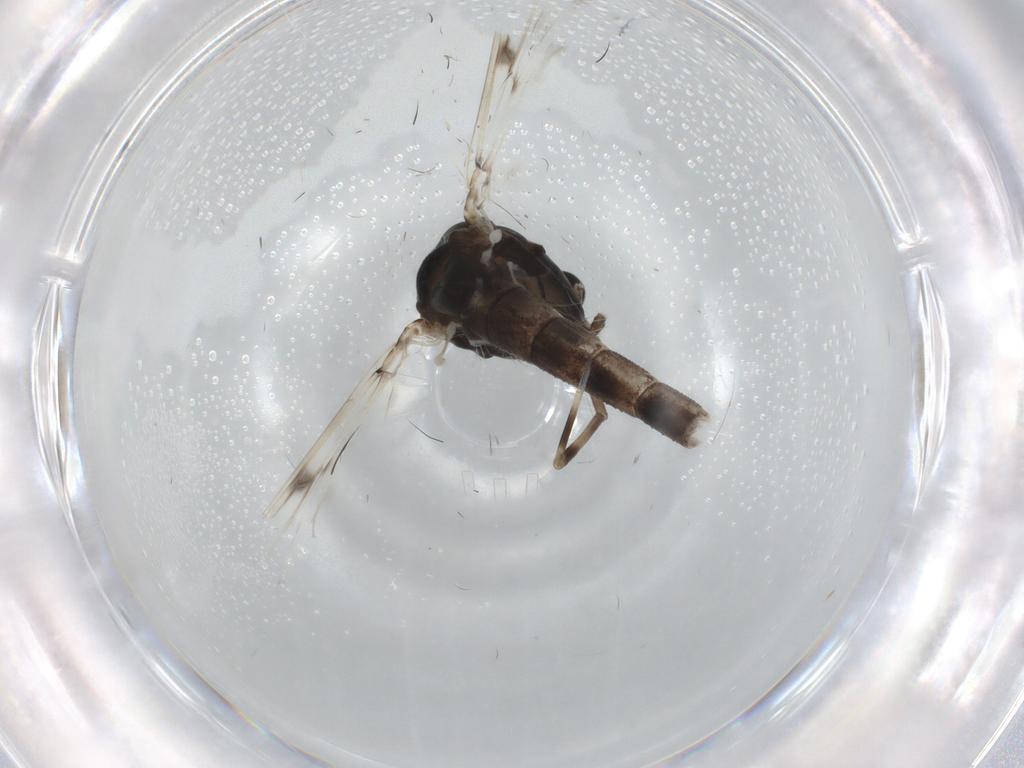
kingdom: Animalia
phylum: Arthropoda
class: Insecta
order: Diptera
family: Chironomidae
